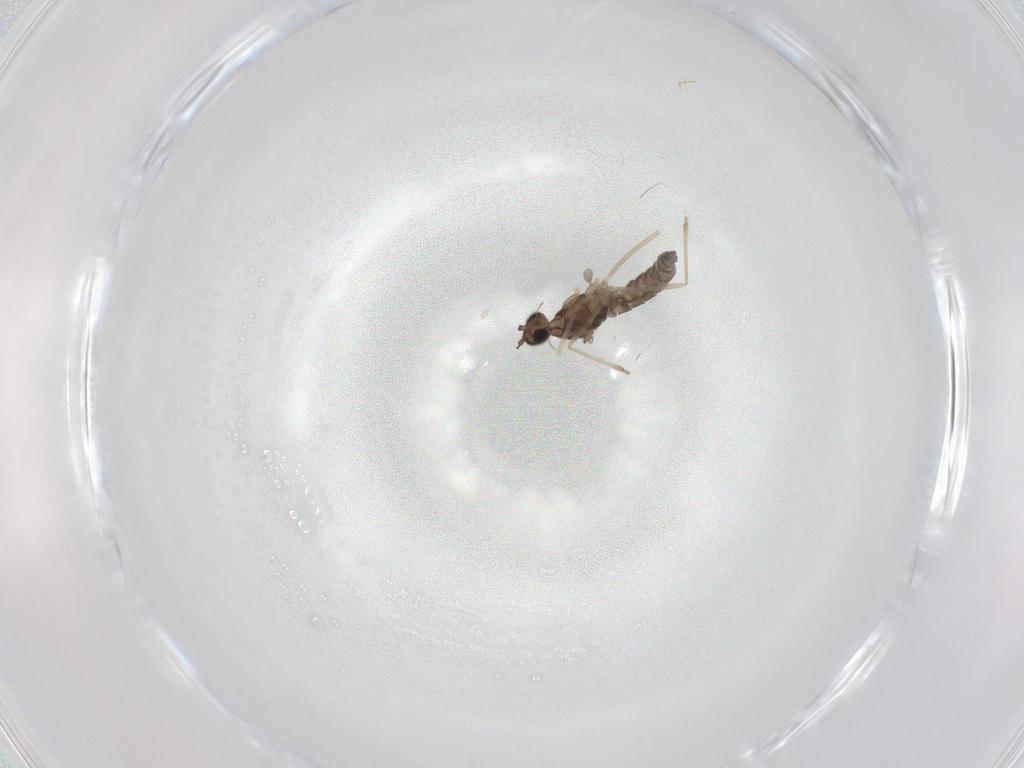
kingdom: Animalia
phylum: Arthropoda
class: Insecta
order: Diptera
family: Cecidomyiidae
